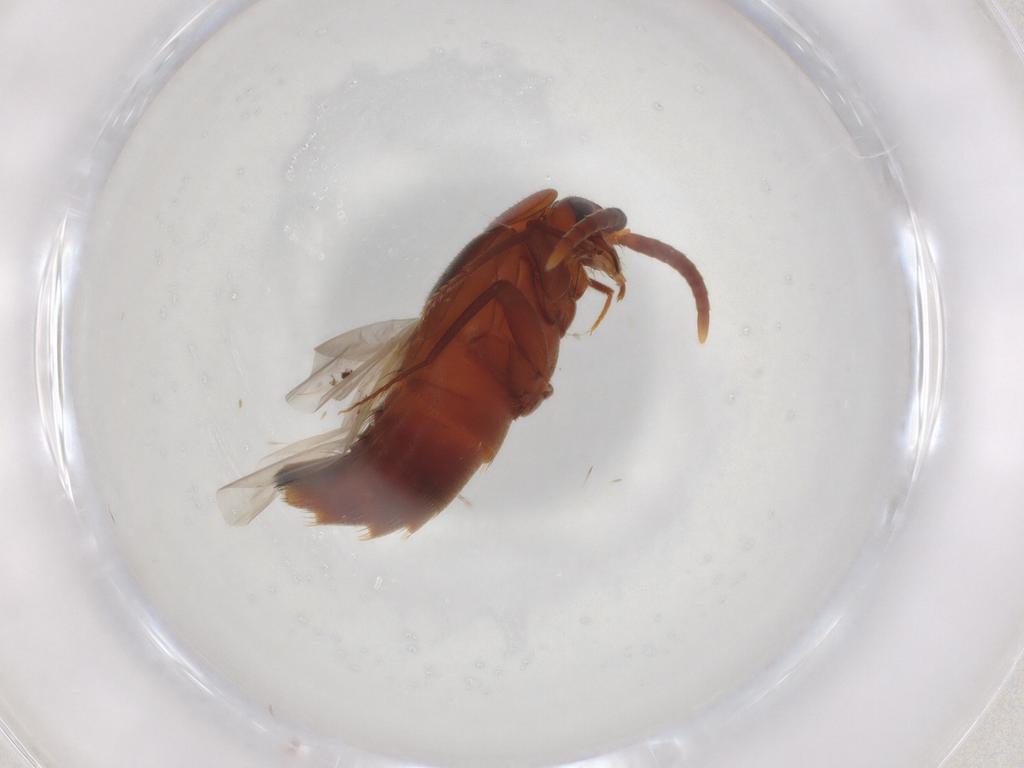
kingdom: Animalia
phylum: Arthropoda
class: Insecta
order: Coleoptera
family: Staphylinidae
